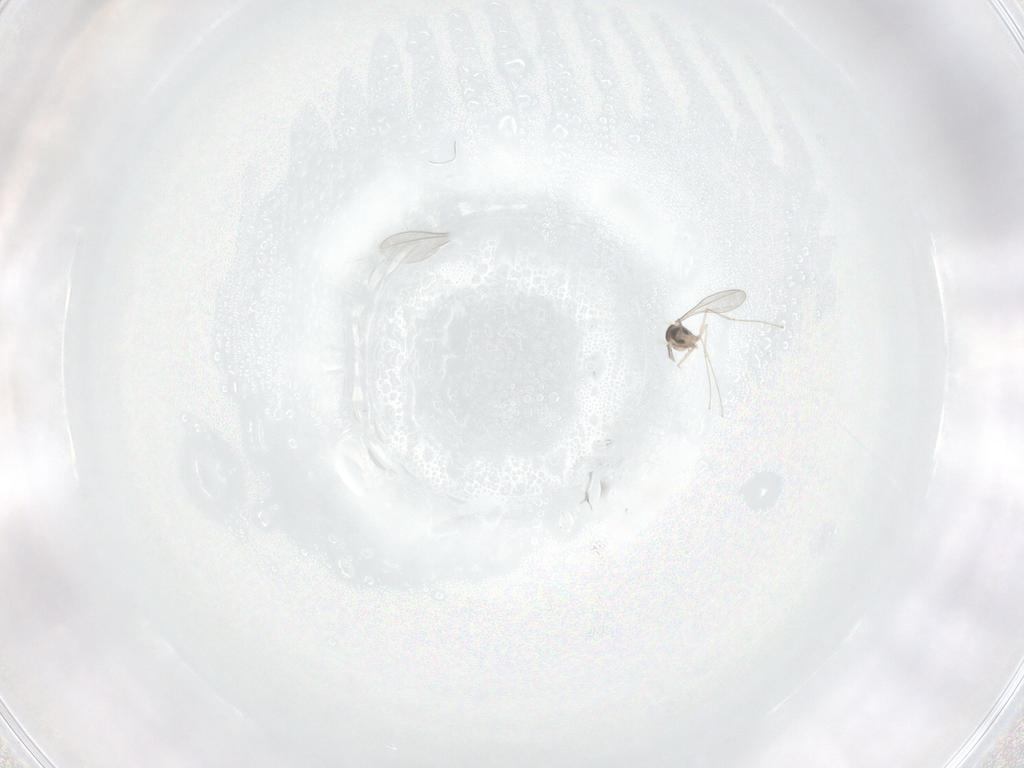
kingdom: Animalia
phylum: Arthropoda
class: Insecta
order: Diptera
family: Cecidomyiidae
